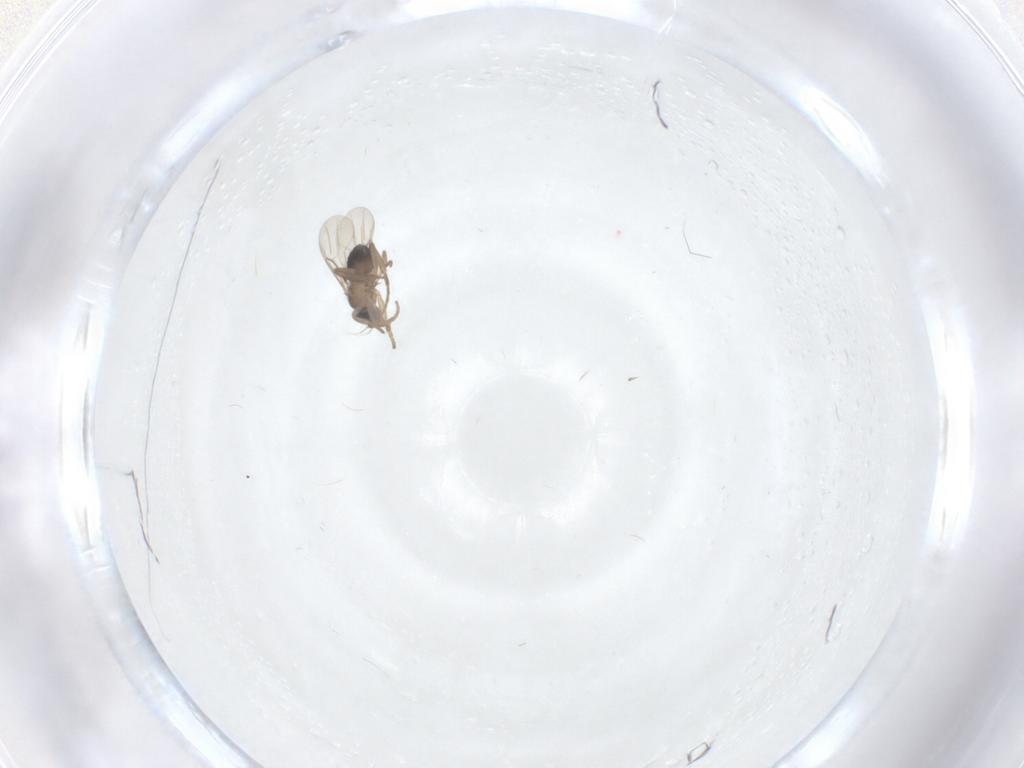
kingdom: Animalia
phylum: Arthropoda
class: Insecta
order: Diptera
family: Phoridae
